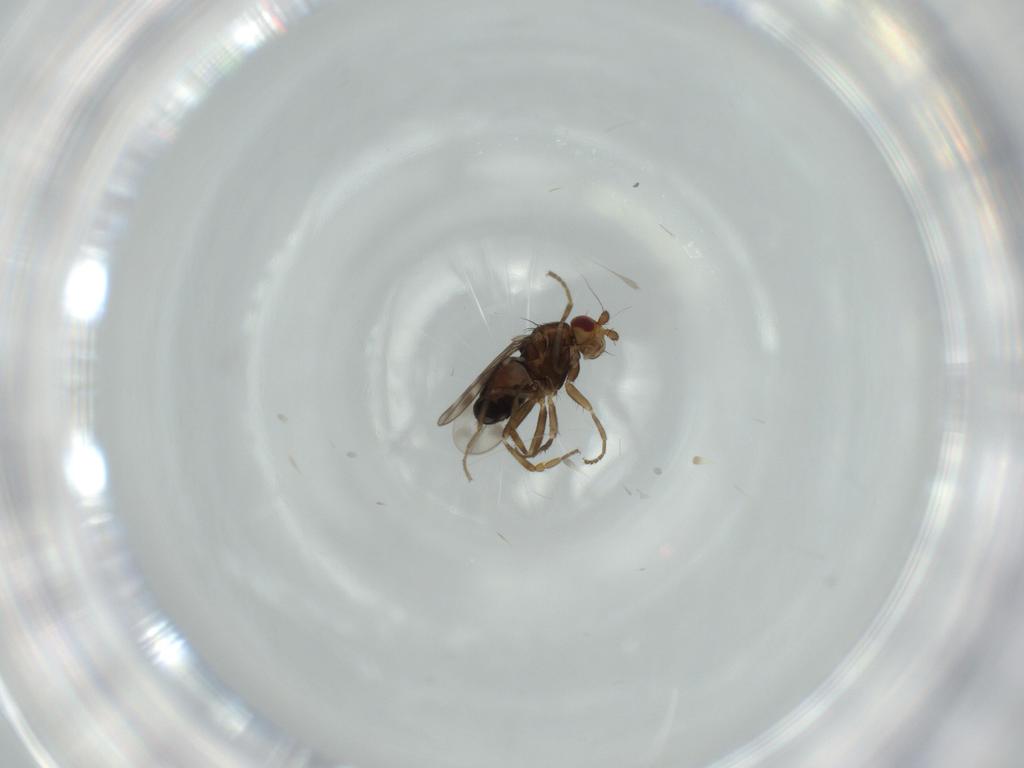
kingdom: Animalia
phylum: Arthropoda
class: Insecta
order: Diptera
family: Sphaeroceridae
